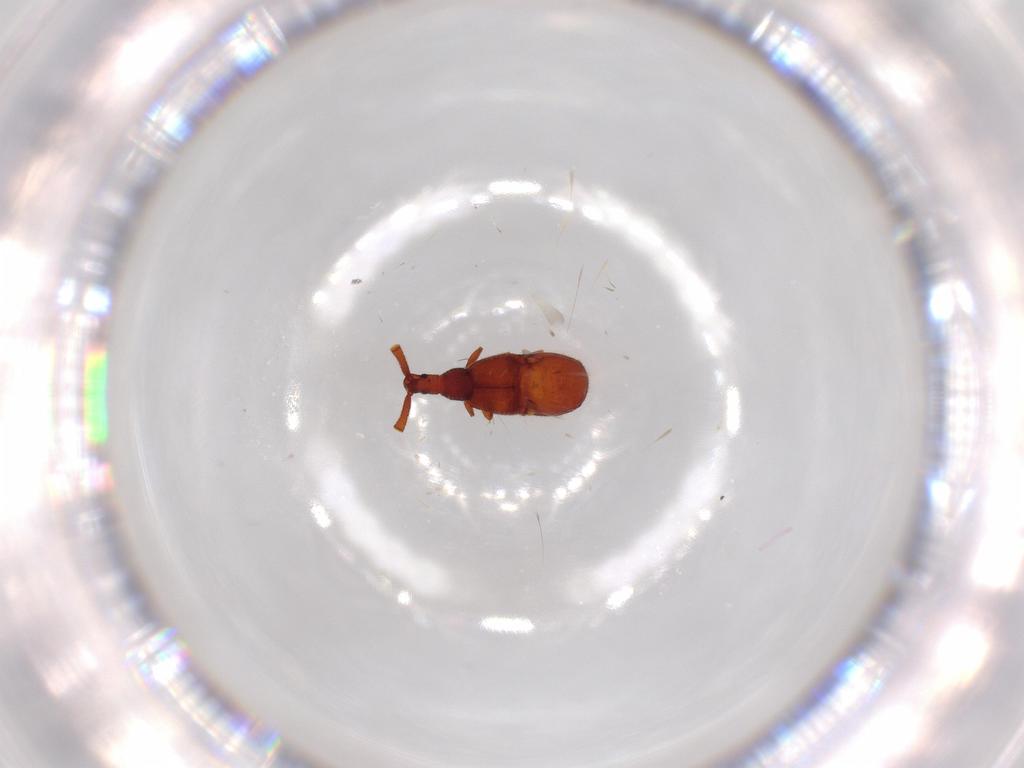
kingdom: Animalia
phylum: Arthropoda
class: Insecta
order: Coleoptera
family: Staphylinidae
